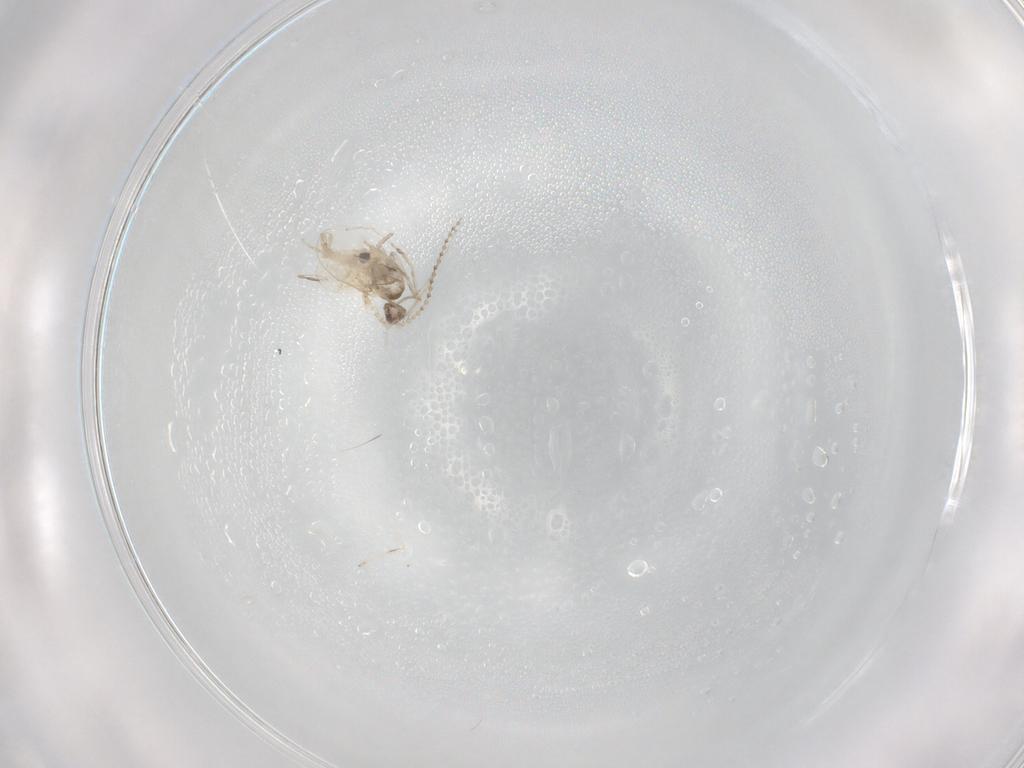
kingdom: Animalia
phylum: Arthropoda
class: Insecta
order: Diptera
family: Cecidomyiidae
